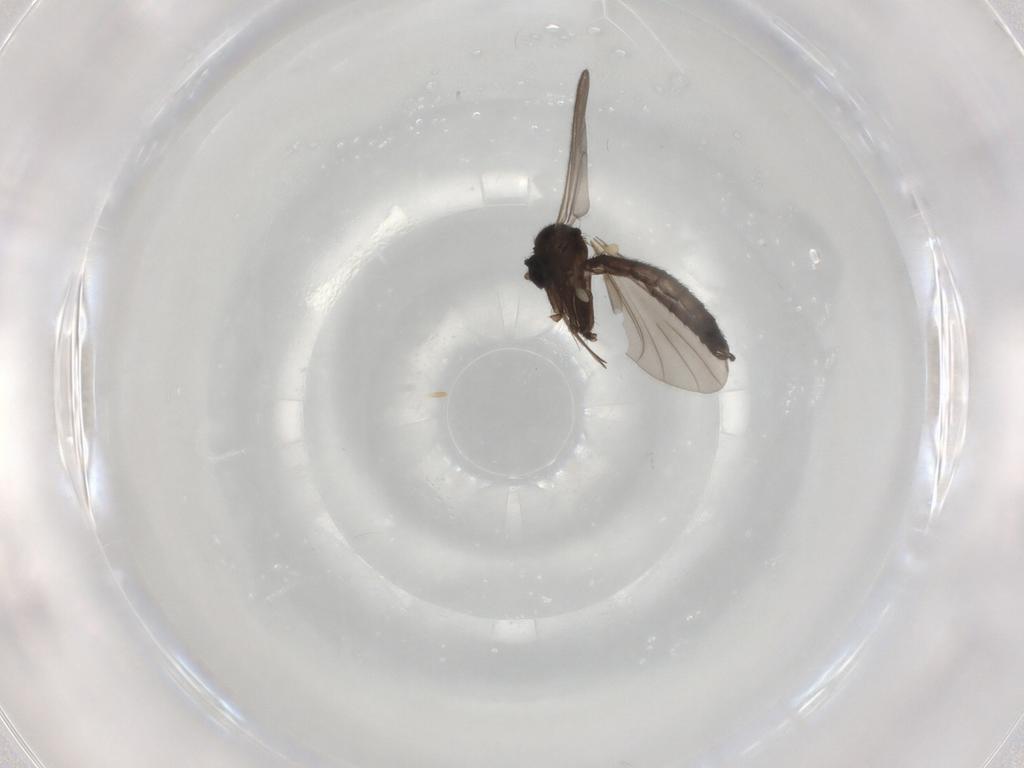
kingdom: Animalia
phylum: Arthropoda
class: Insecta
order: Diptera
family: Keroplatidae
